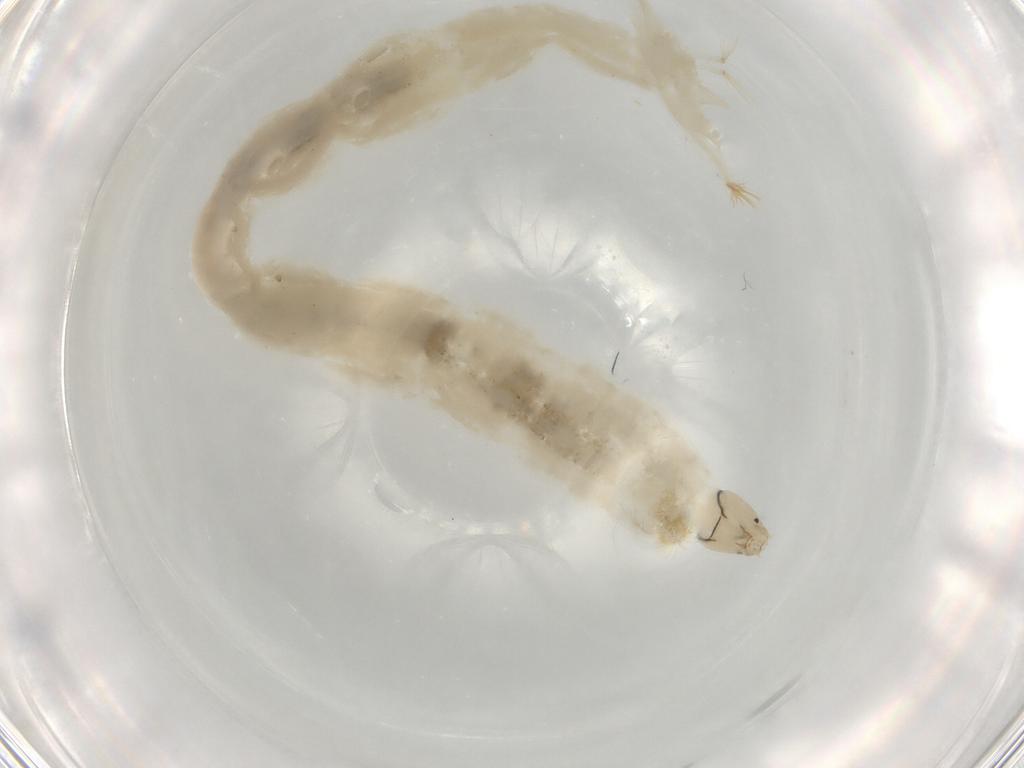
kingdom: Animalia
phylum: Arthropoda
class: Insecta
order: Diptera
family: Chironomidae
